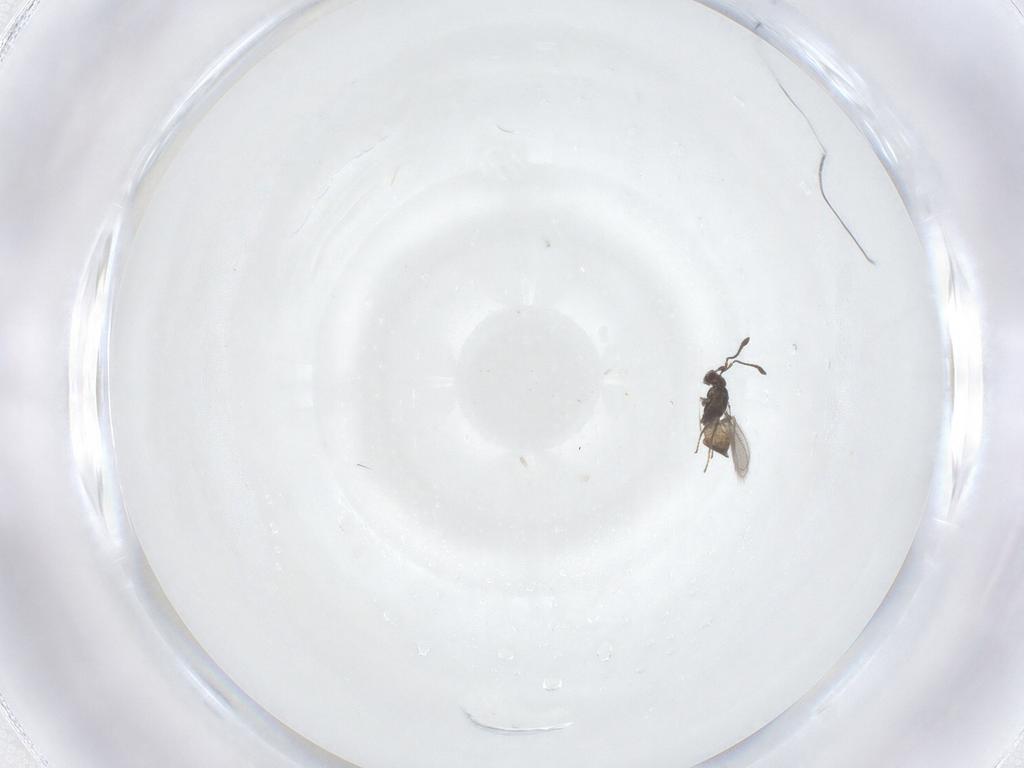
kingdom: Animalia
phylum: Arthropoda
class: Insecta
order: Hymenoptera
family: Mymaridae
